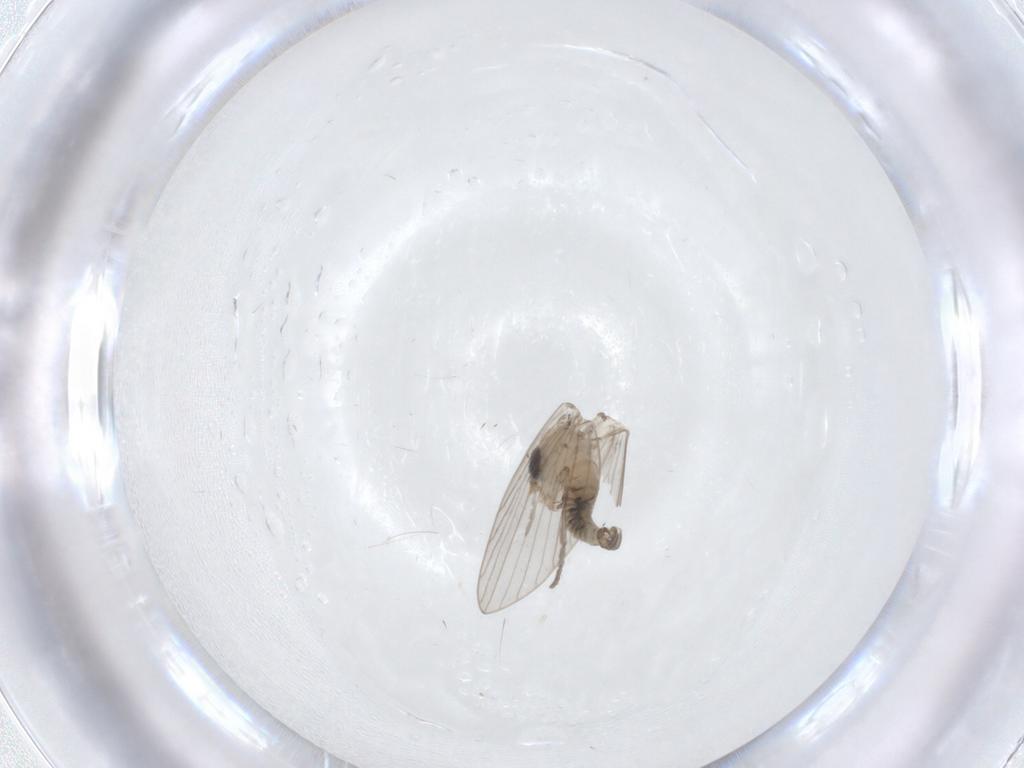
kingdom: Animalia
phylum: Arthropoda
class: Insecta
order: Diptera
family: Psychodidae
